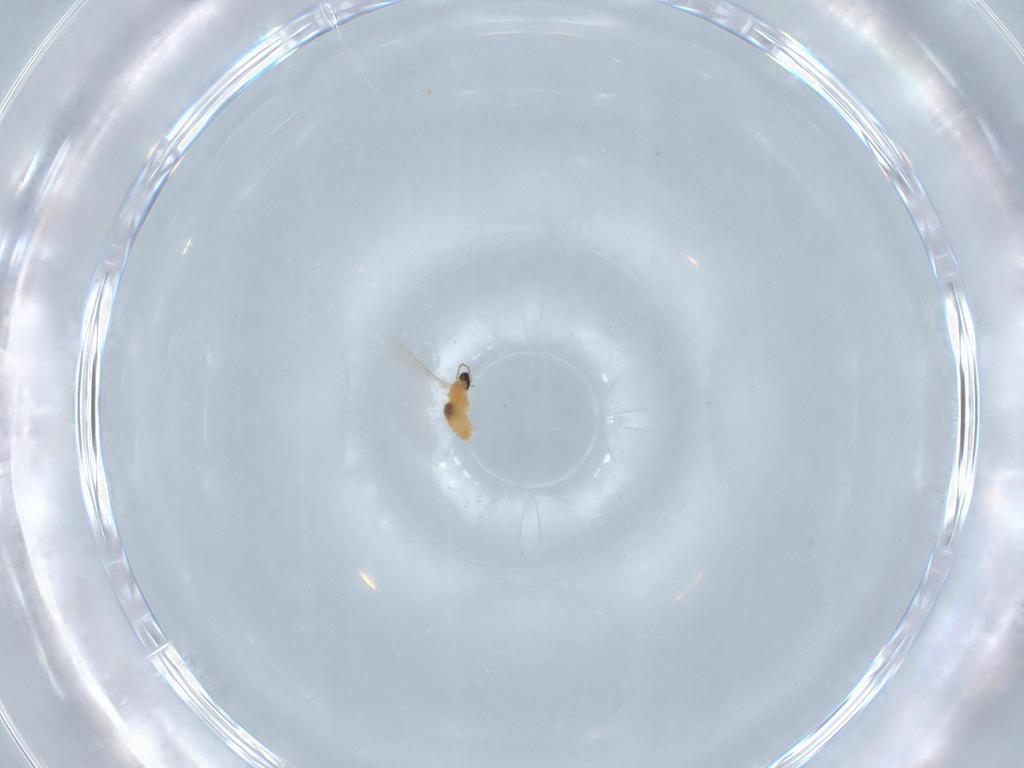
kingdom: Animalia
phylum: Arthropoda
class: Insecta
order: Diptera
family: Cecidomyiidae
